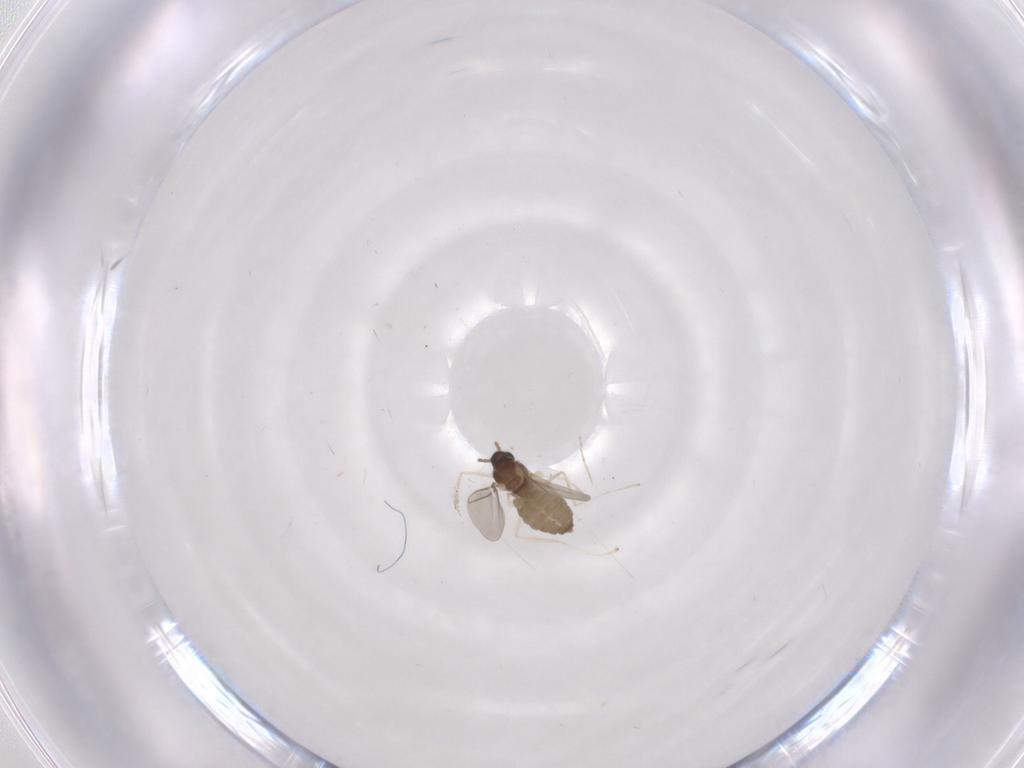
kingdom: Animalia
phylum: Arthropoda
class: Insecta
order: Diptera
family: Cecidomyiidae
